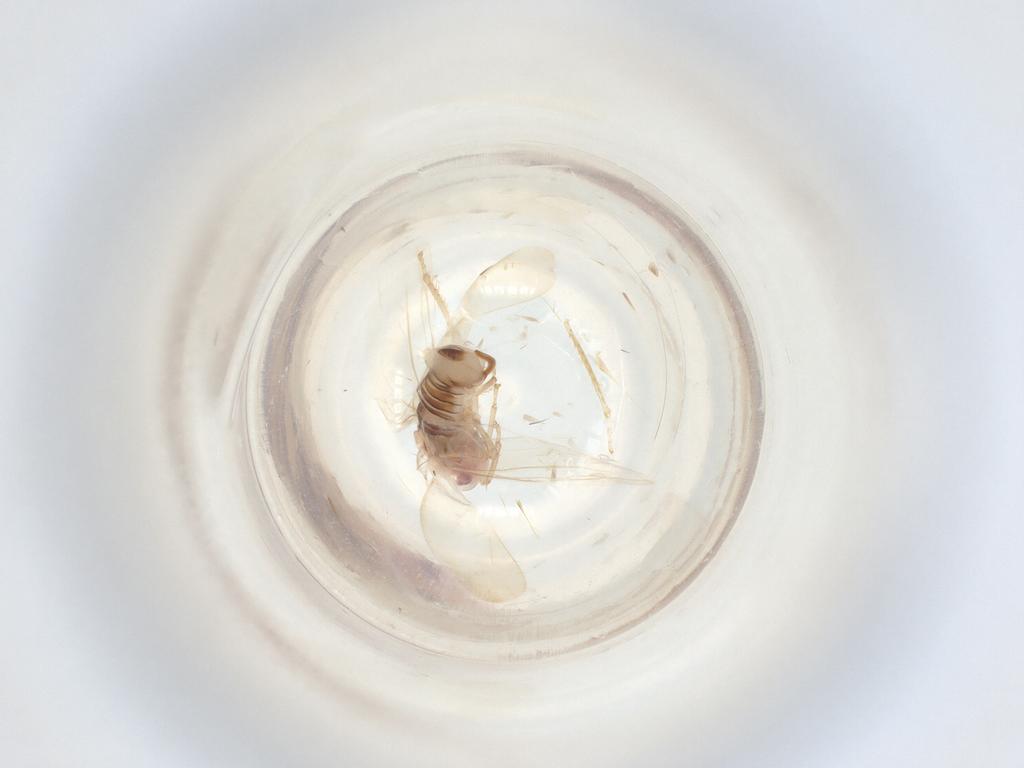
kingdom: Animalia
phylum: Arthropoda
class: Insecta
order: Hemiptera
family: Cicadellidae
